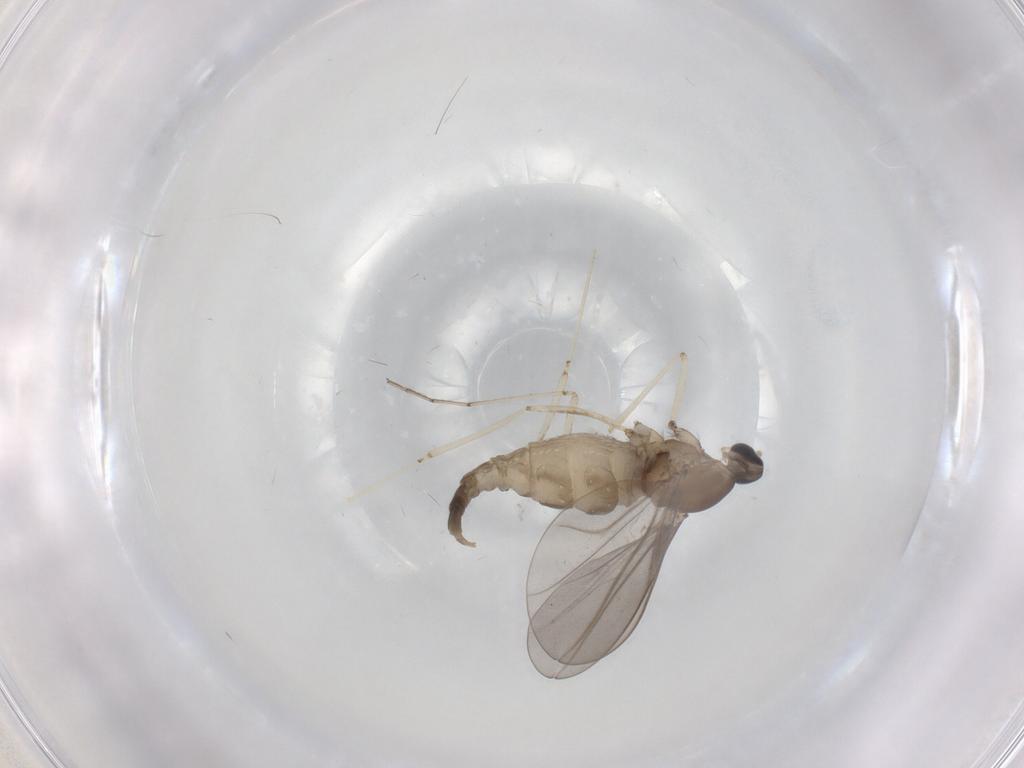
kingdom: Animalia
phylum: Arthropoda
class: Insecta
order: Diptera
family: Cecidomyiidae
